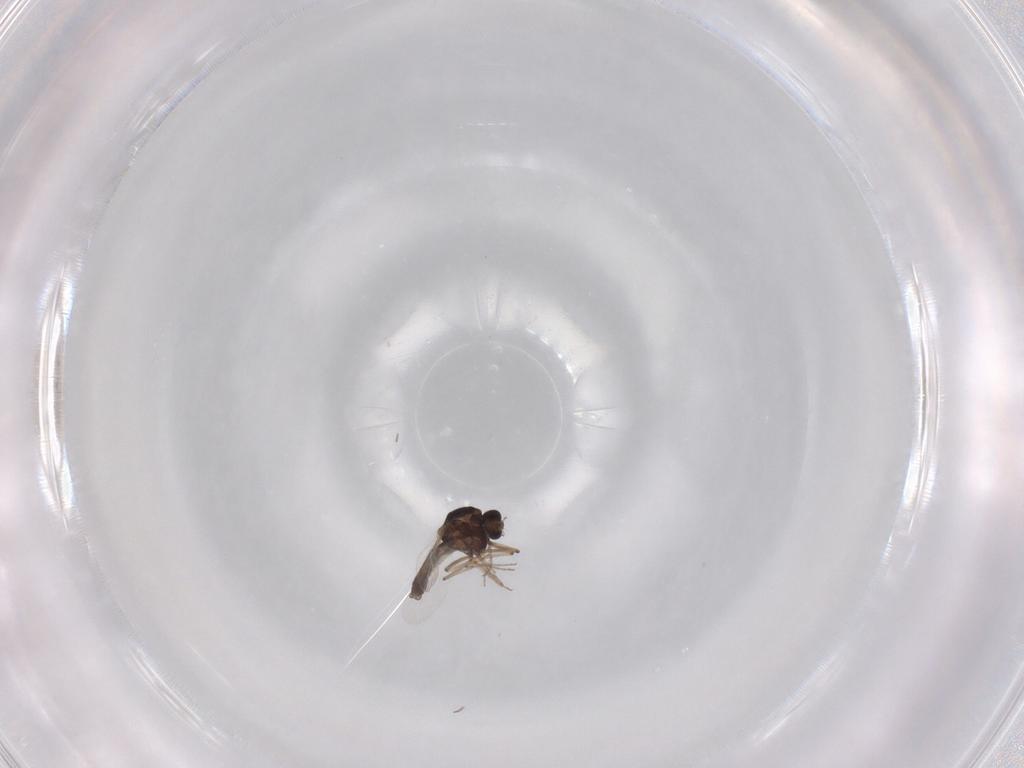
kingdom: Animalia
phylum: Arthropoda
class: Insecta
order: Diptera
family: Ceratopogonidae
